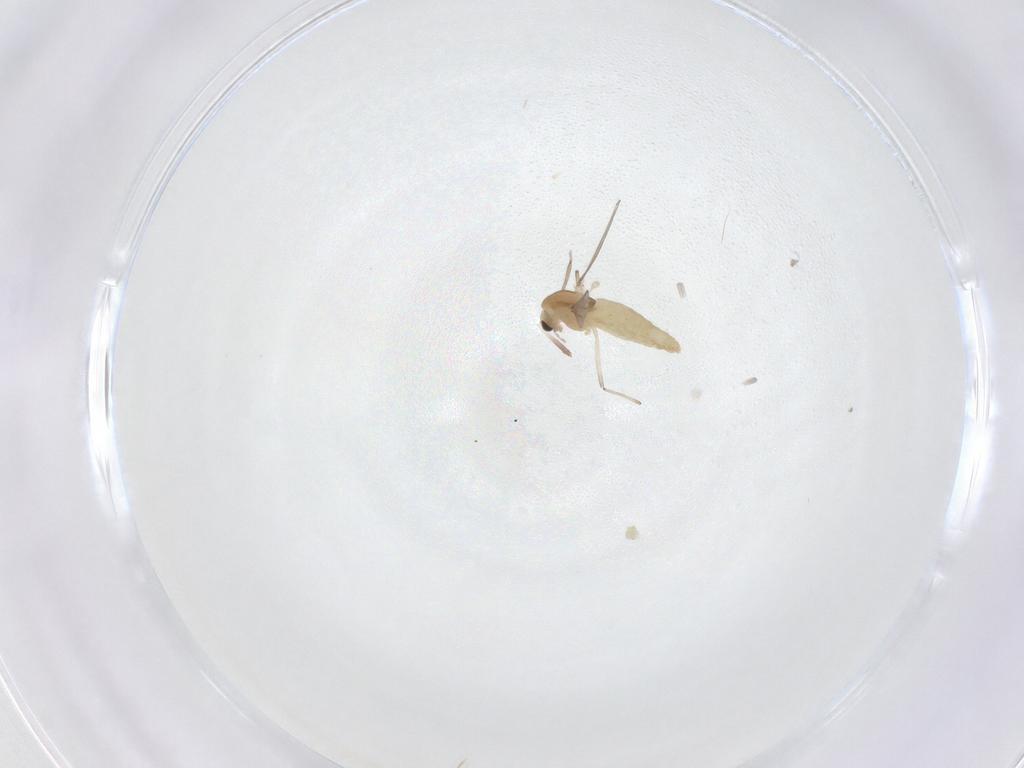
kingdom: Animalia
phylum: Arthropoda
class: Insecta
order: Diptera
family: Chironomidae
